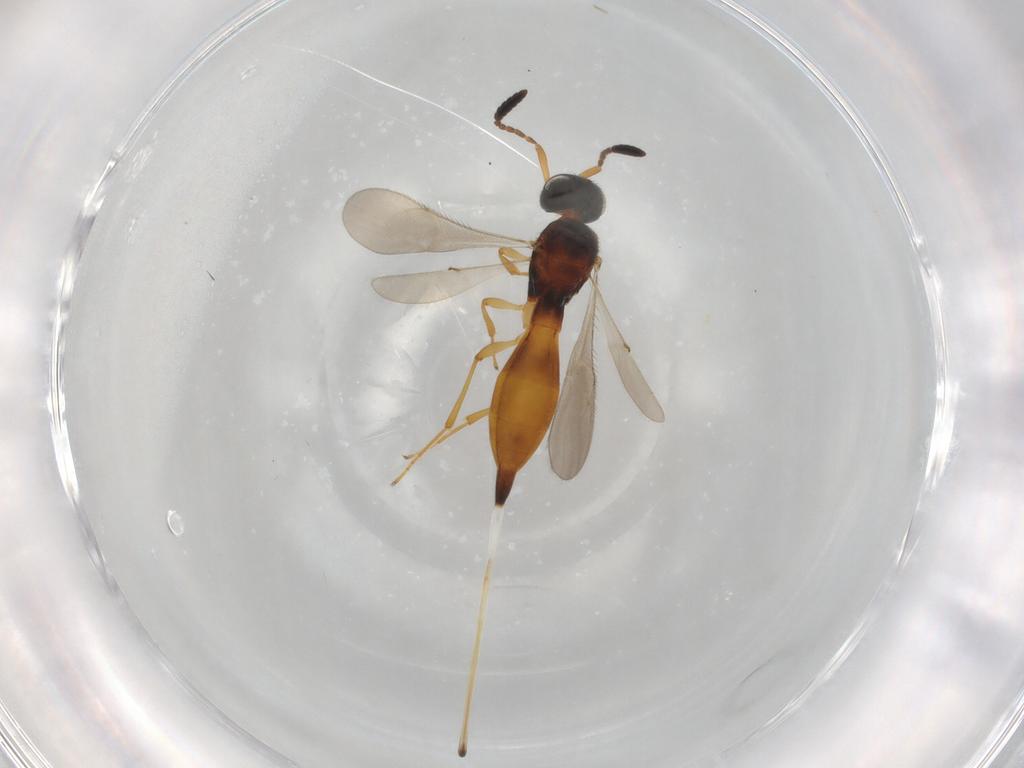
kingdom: Animalia
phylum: Arthropoda
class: Insecta
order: Hymenoptera
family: Scelionidae
